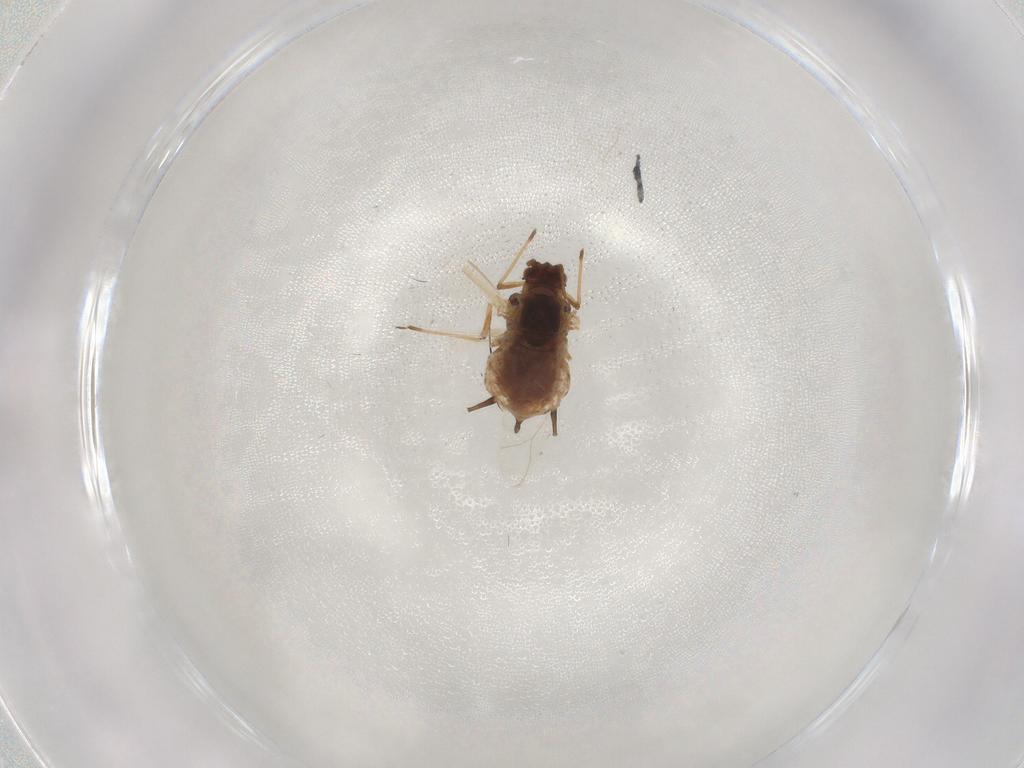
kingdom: Animalia
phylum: Arthropoda
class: Insecta
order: Hemiptera
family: Aphididae
